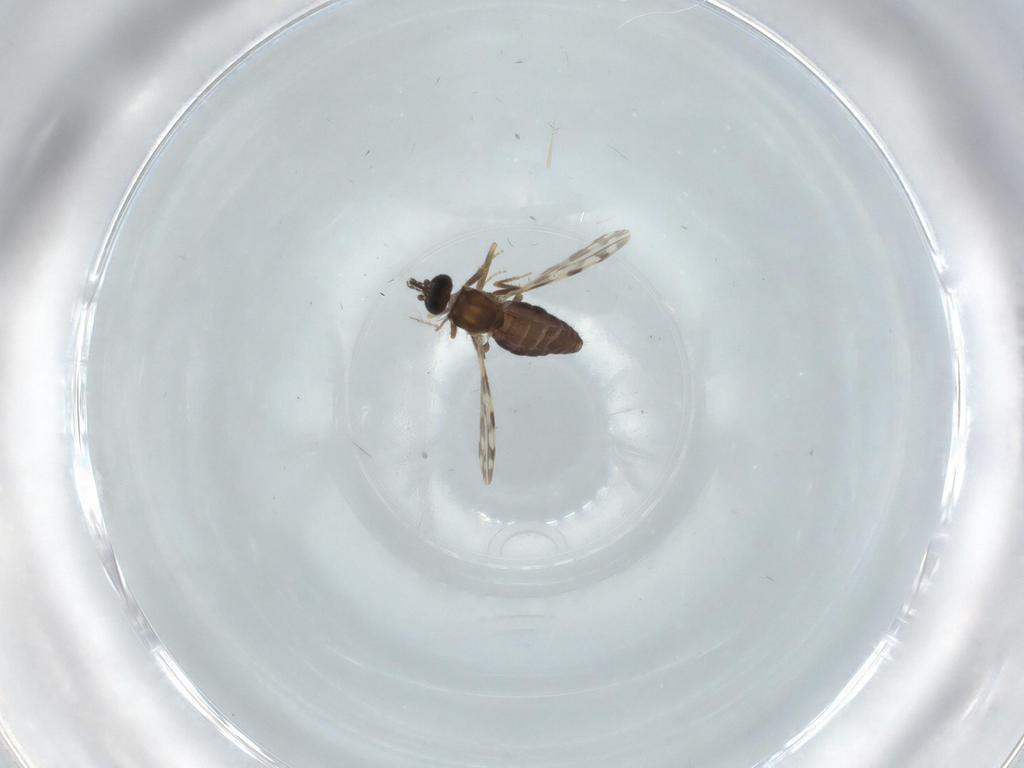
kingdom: Animalia
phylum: Arthropoda
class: Insecta
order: Diptera
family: Ceratopogonidae
